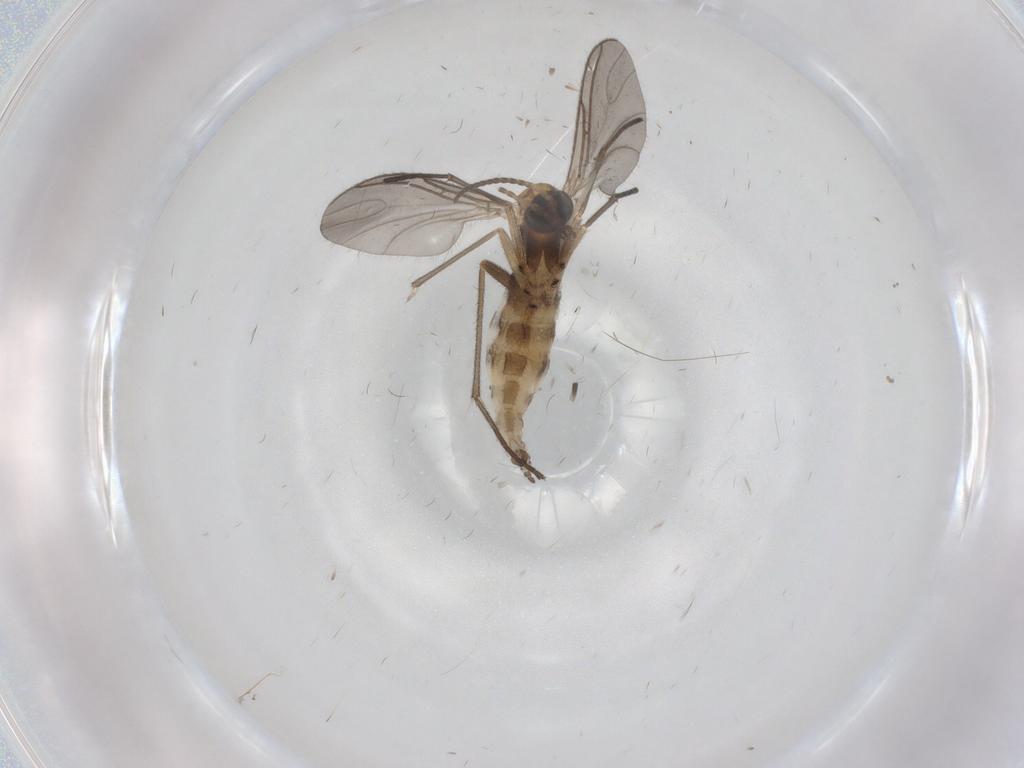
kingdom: Animalia
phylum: Arthropoda
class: Insecta
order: Diptera
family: Sciaridae
